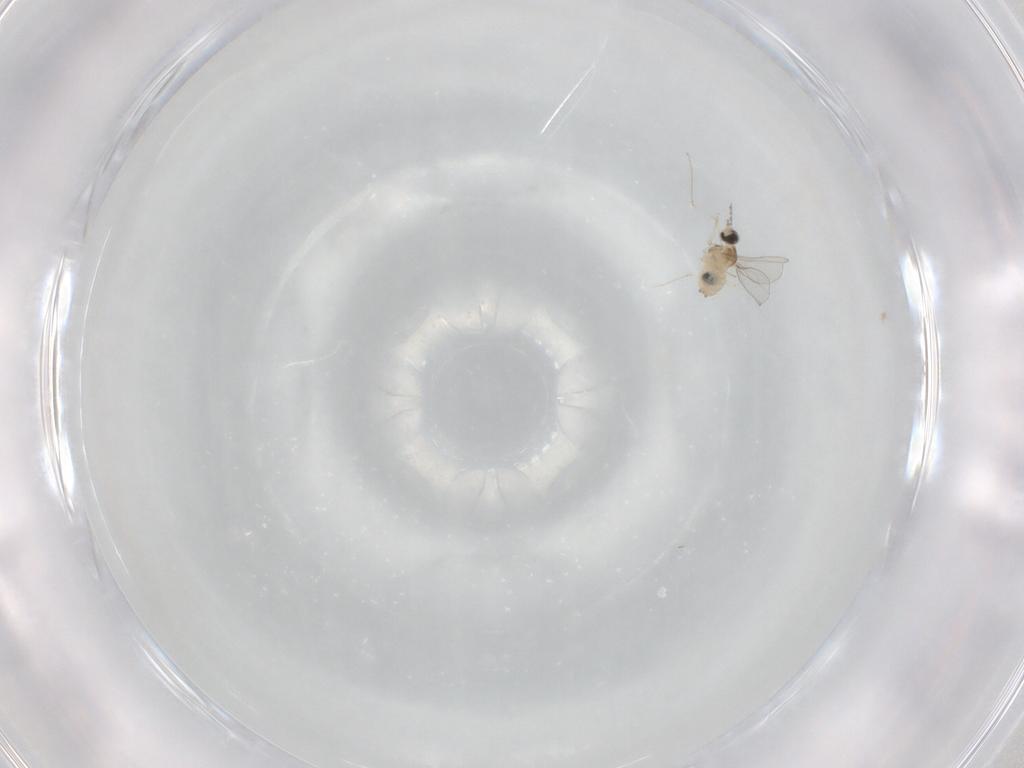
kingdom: Animalia
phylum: Arthropoda
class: Insecta
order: Diptera
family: Cecidomyiidae
